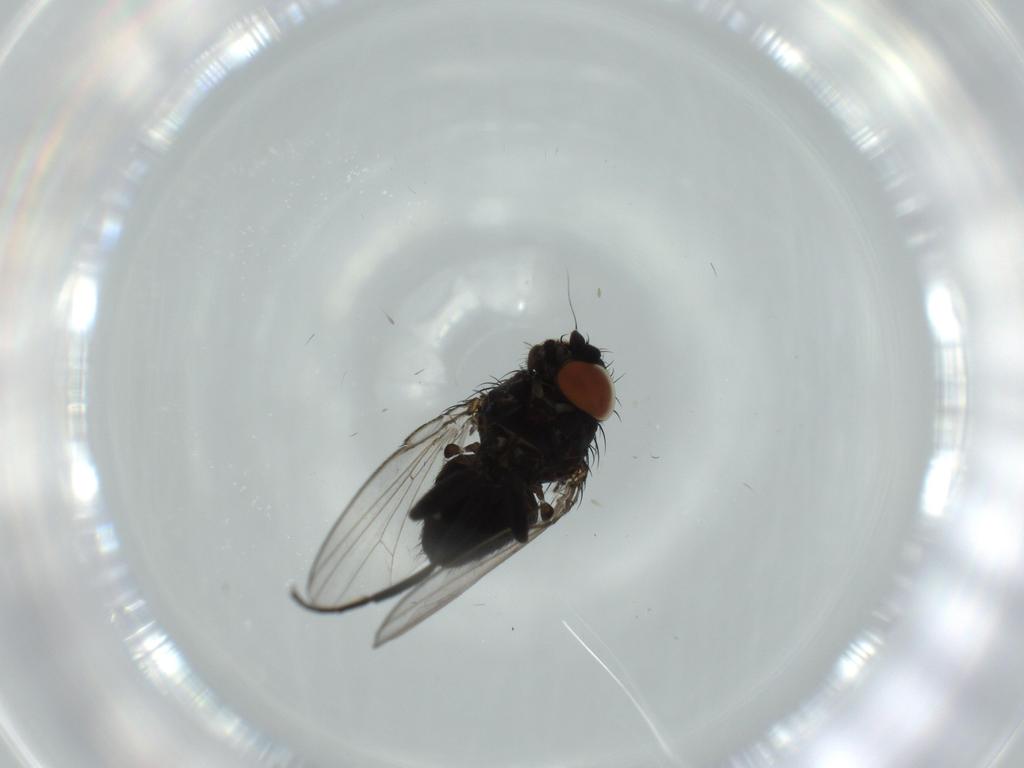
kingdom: Animalia
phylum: Arthropoda
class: Insecta
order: Diptera
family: Milichiidae
